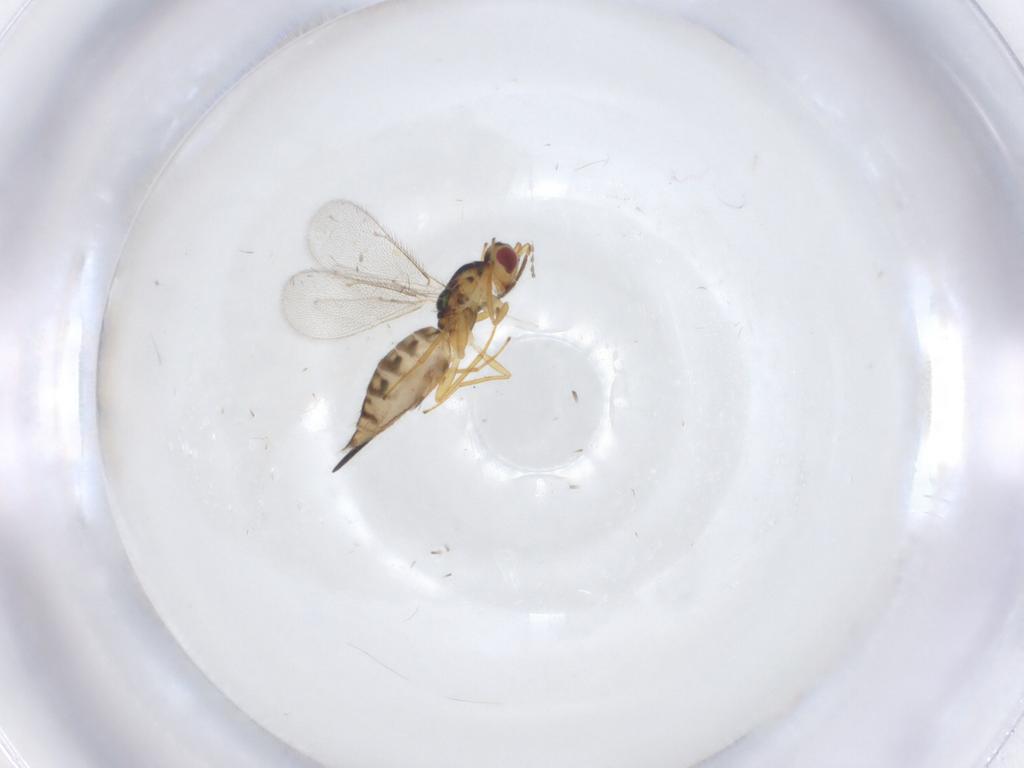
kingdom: Animalia
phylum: Arthropoda
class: Insecta
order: Hymenoptera
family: Eulophidae
